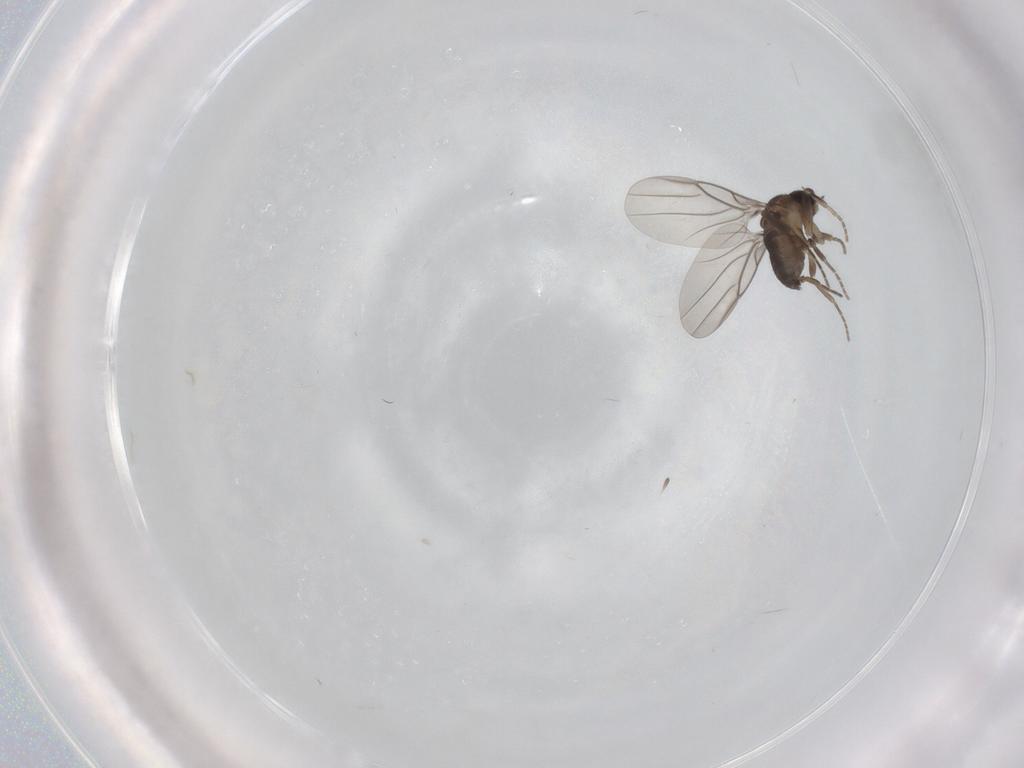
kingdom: Animalia
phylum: Arthropoda
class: Insecta
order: Diptera
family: Phoridae
